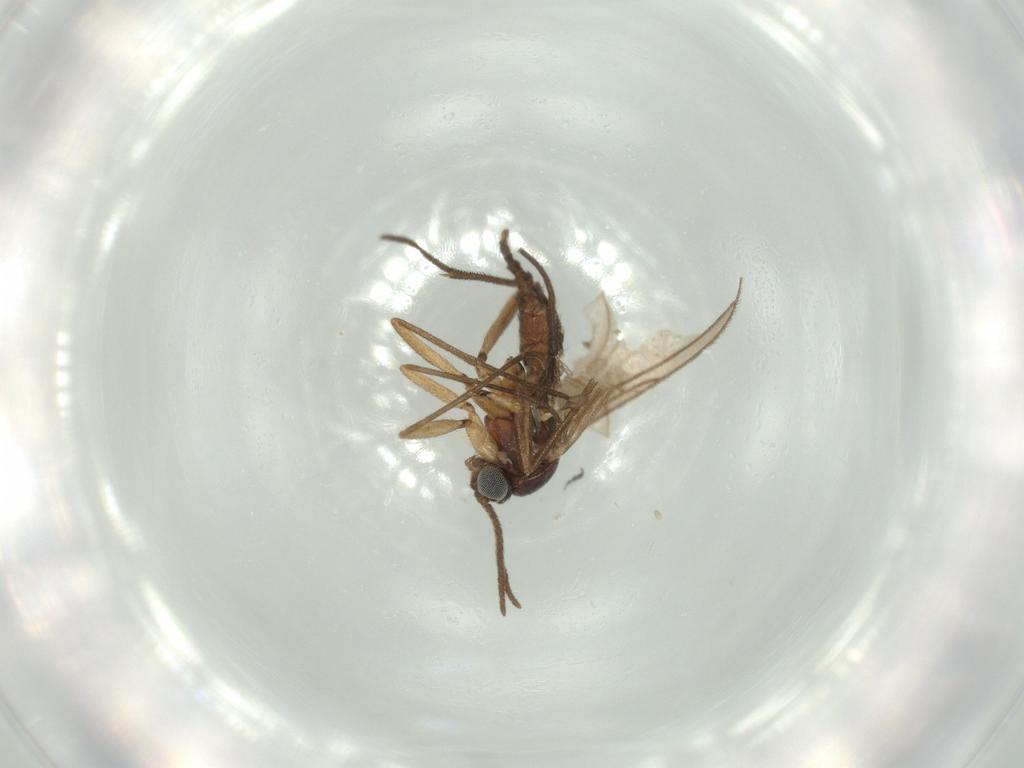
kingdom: Animalia
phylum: Arthropoda
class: Insecta
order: Diptera
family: Sciaridae
